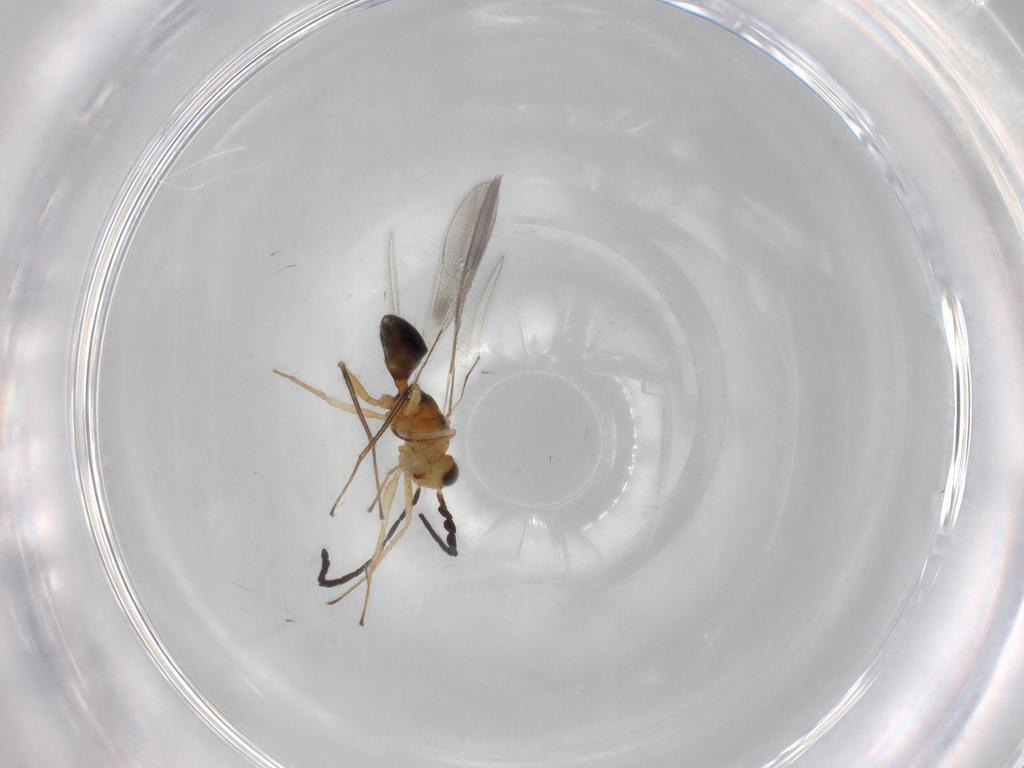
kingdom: Animalia
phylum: Arthropoda
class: Insecta
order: Hymenoptera
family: Mymaridae
